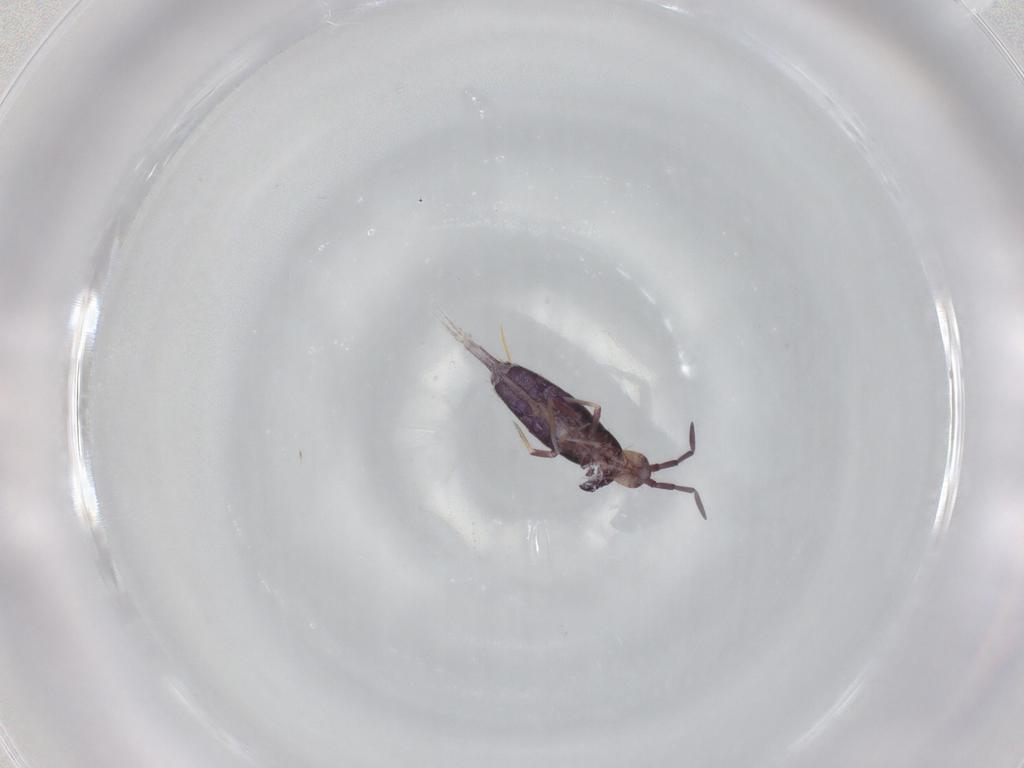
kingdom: Animalia
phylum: Arthropoda
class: Collembola
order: Entomobryomorpha
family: Entomobryidae
